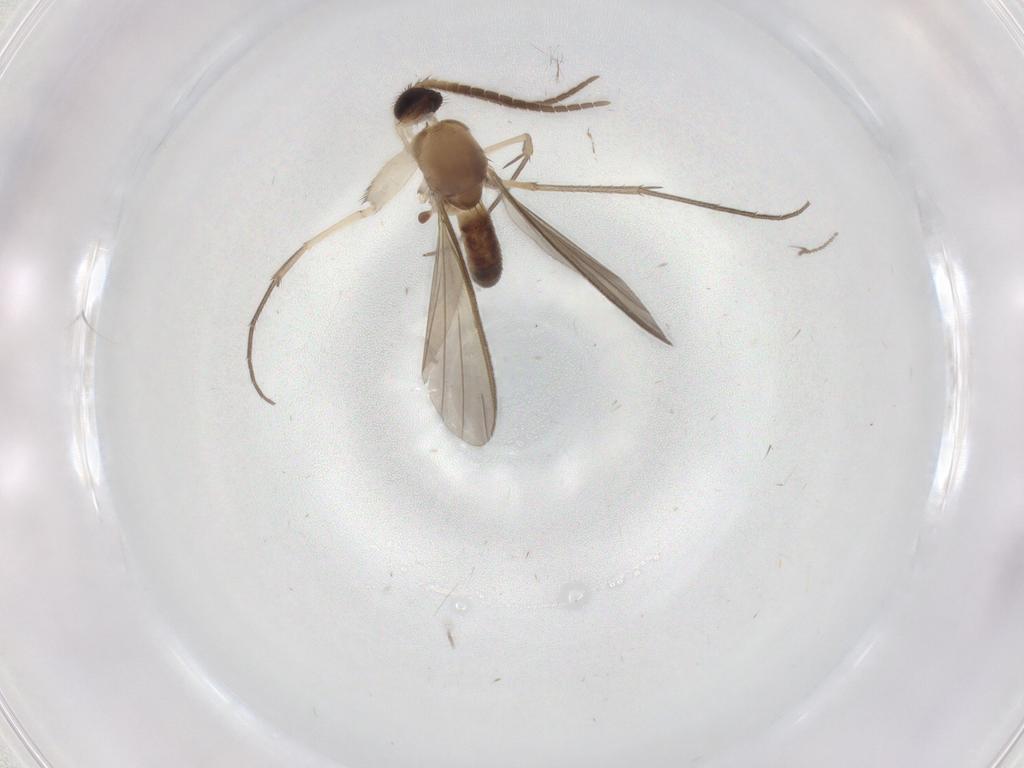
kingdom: Animalia
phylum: Arthropoda
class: Insecta
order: Diptera
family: Mycetophilidae
